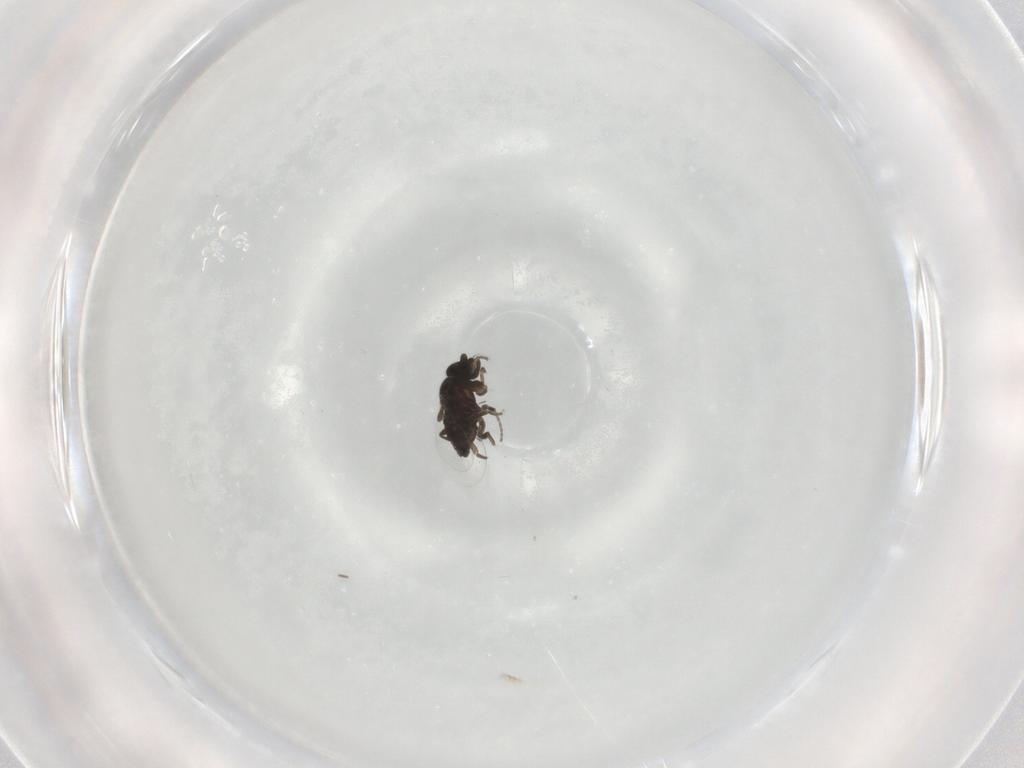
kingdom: Animalia
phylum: Arthropoda
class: Insecta
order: Diptera
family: Phoridae
